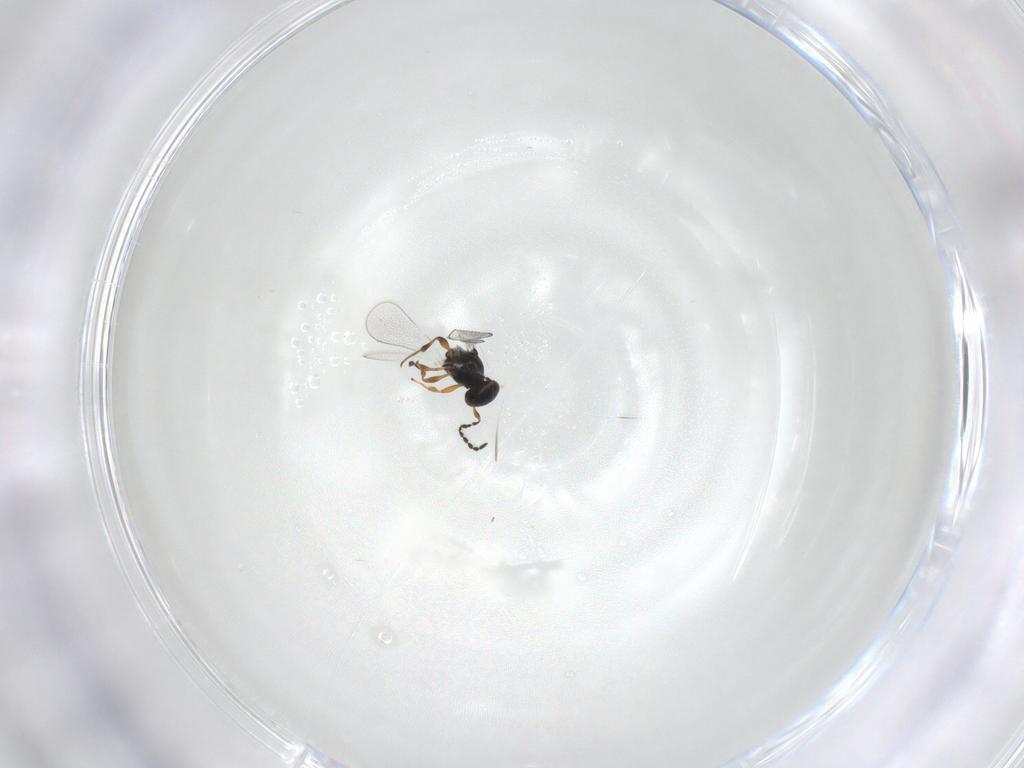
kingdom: Animalia
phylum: Arthropoda
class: Insecta
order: Hymenoptera
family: Platygastridae
